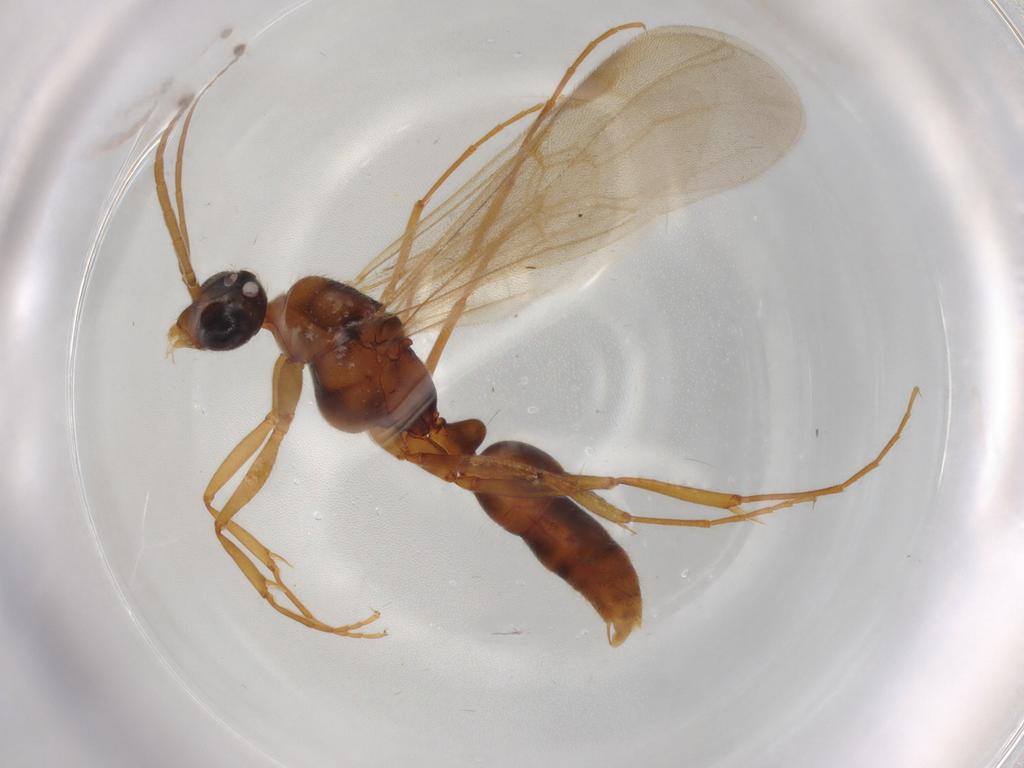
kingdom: Animalia
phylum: Arthropoda
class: Insecta
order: Hymenoptera
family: Formicidae
